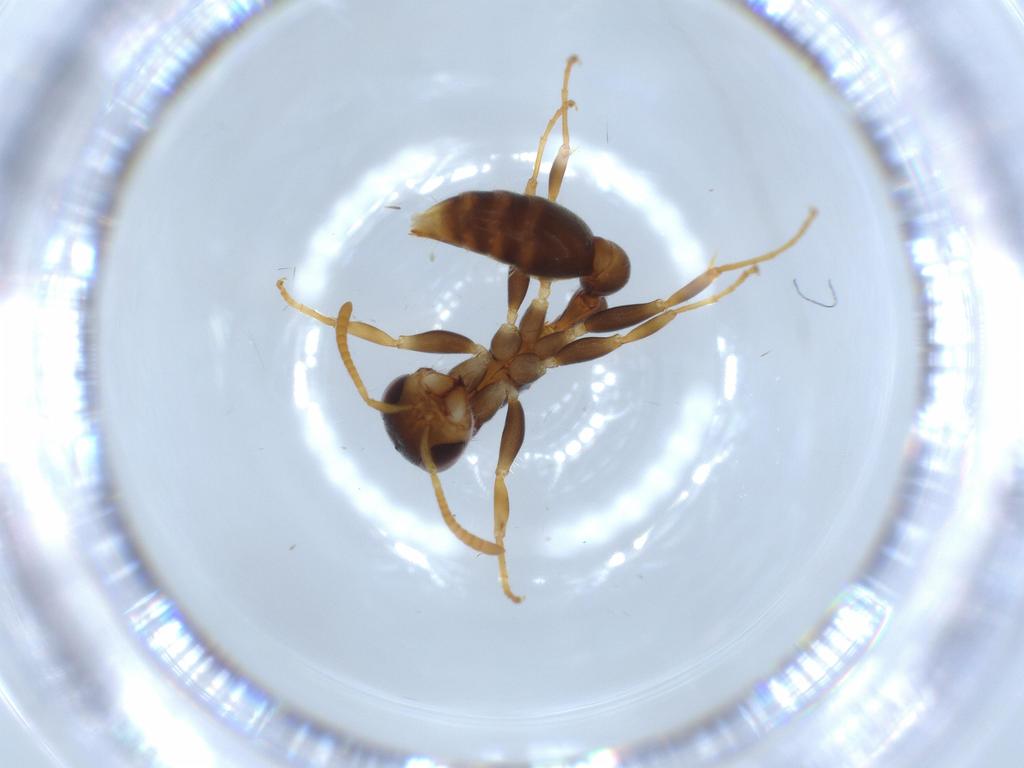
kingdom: Animalia
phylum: Arthropoda
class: Insecta
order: Hymenoptera
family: Formicidae
